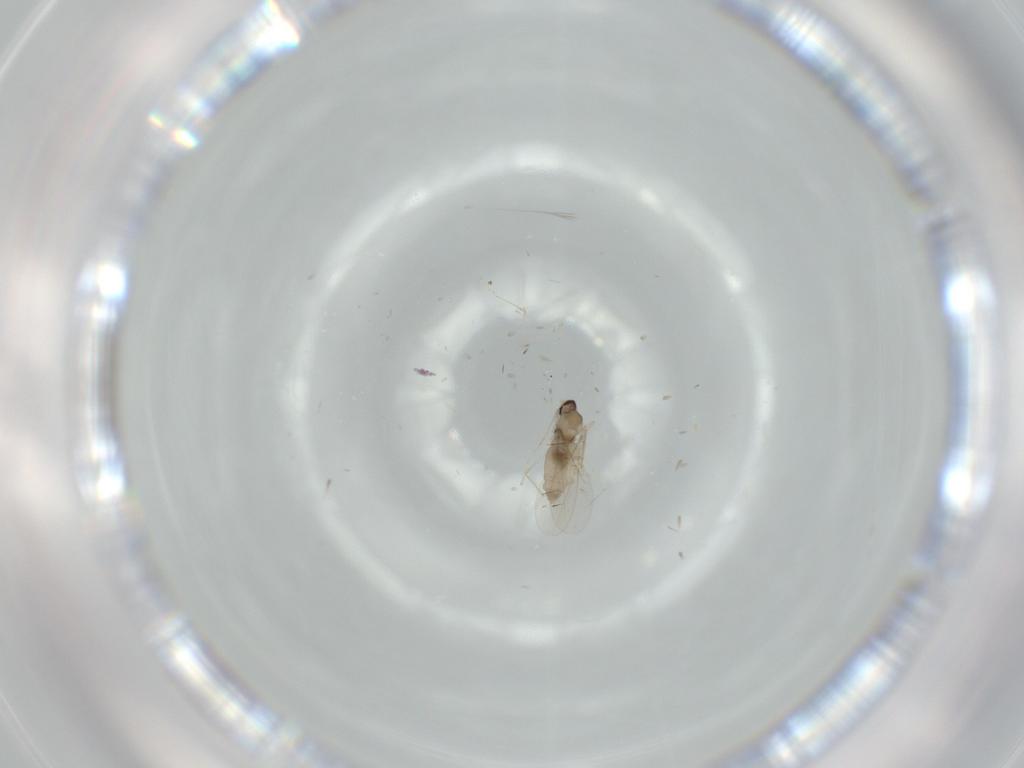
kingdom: Animalia
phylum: Arthropoda
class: Insecta
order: Diptera
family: Cecidomyiidae
